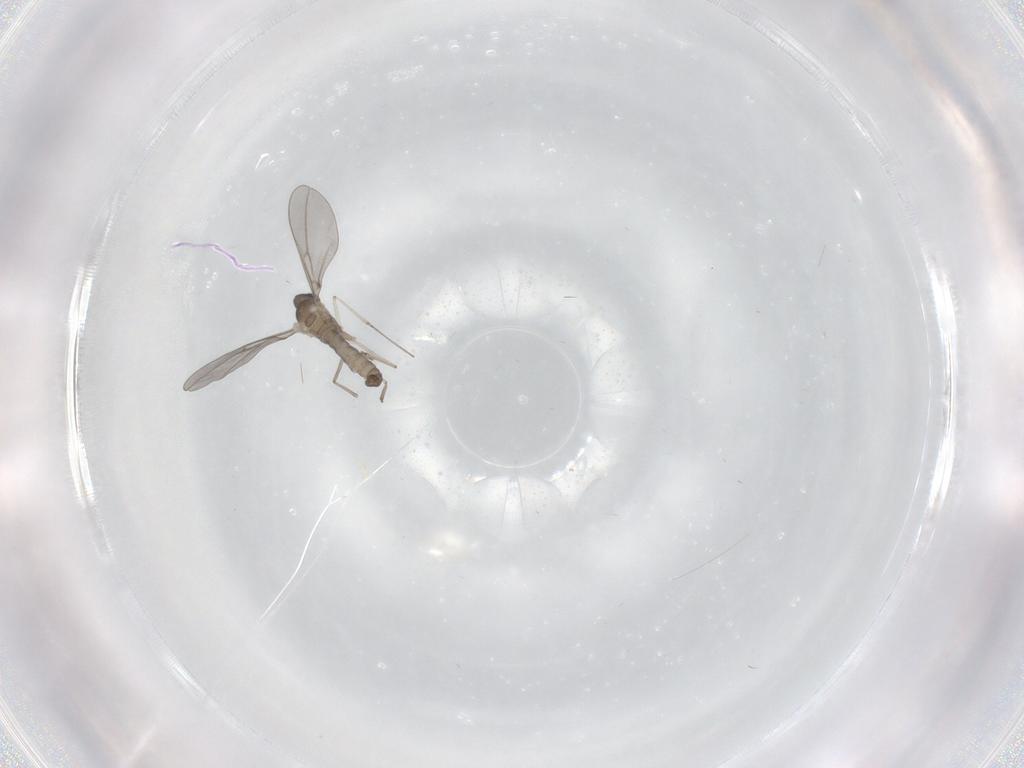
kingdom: Animalia
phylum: Arthropoda
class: Insecta
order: Diptera
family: Cecidomyiidae
